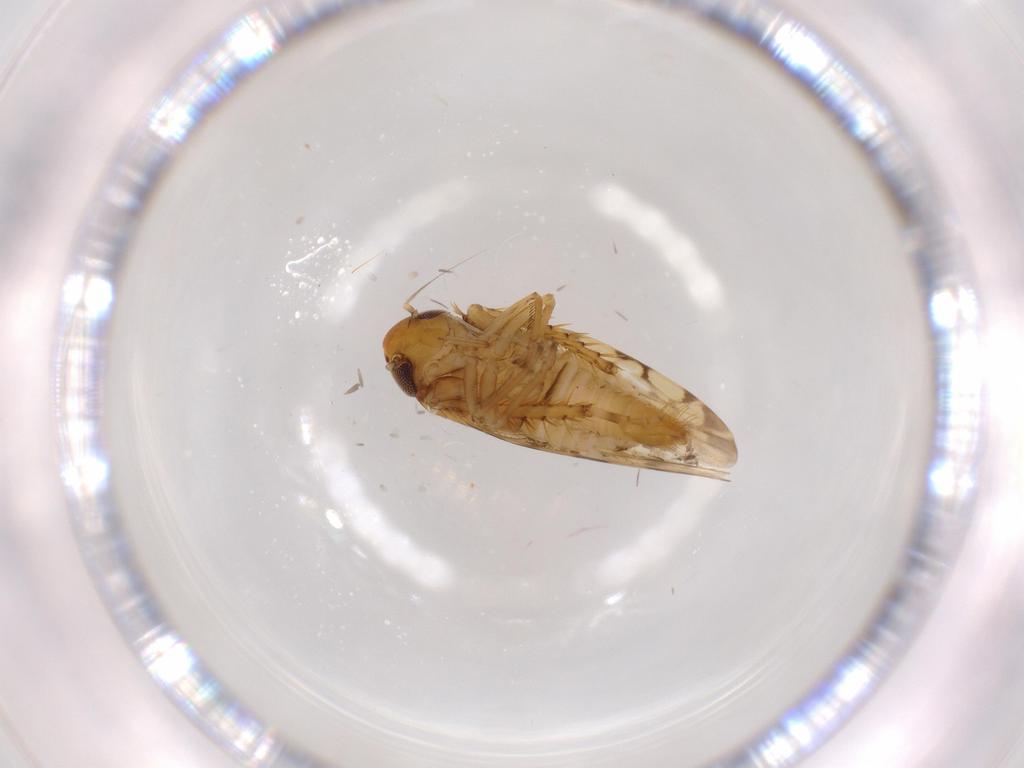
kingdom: Animalia
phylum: Arthropoda
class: Insecta
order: Hemiptera
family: Cicadellidae
